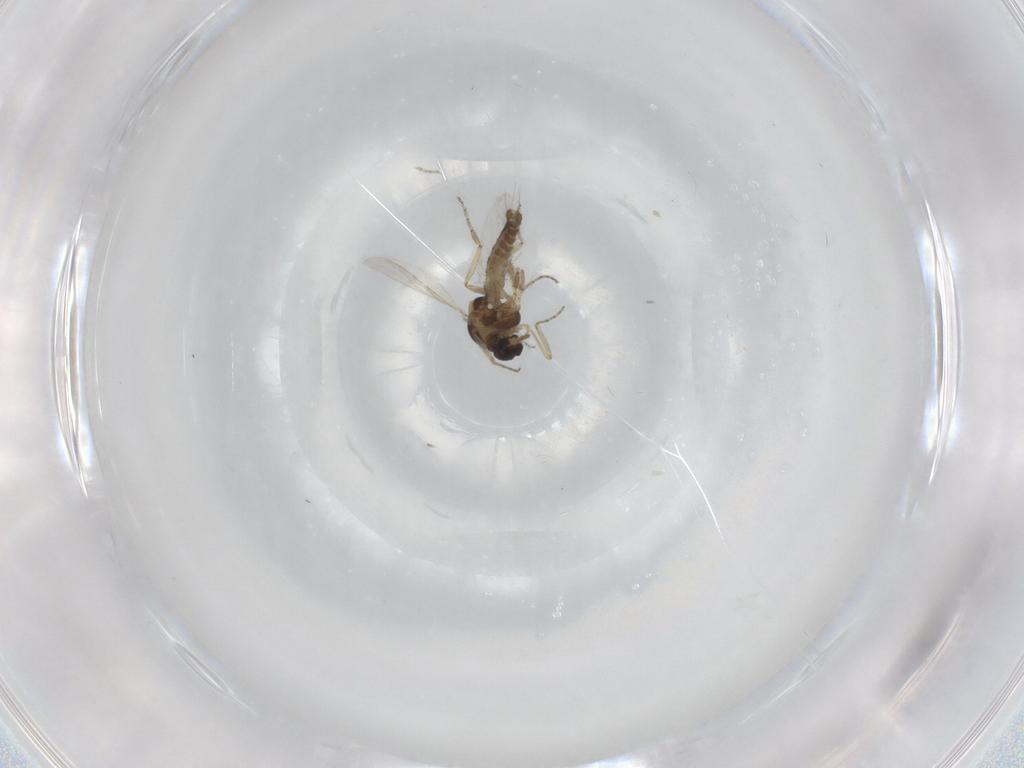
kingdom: Animalia
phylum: Arthropoda
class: Insecta
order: Diptera
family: Ceratopogonidae
